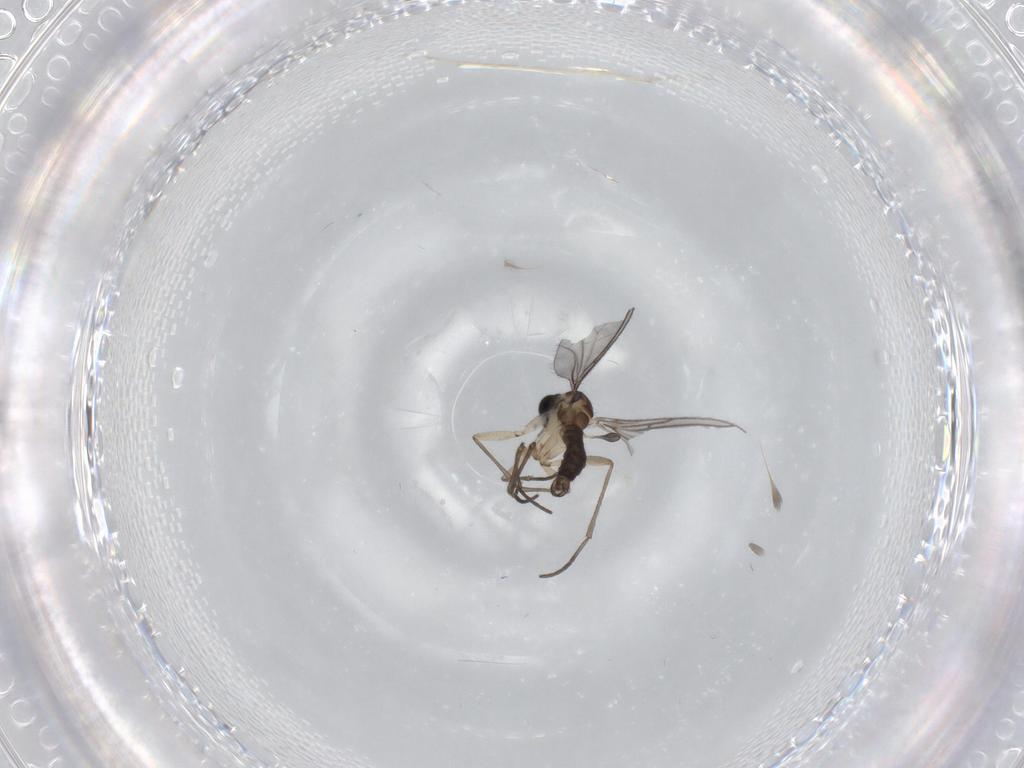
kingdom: Animalia
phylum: Arthropoda
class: Insecta
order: Diptera
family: Sciaridae
